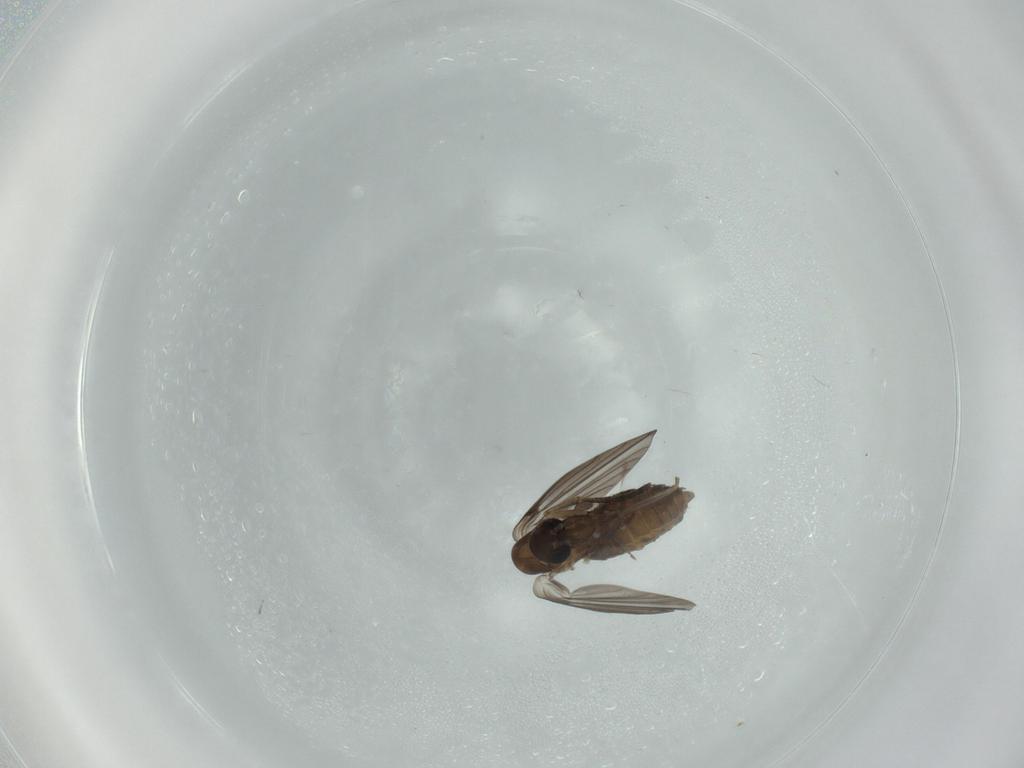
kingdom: Animalia
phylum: Arthropoda
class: Insecta
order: Diptera
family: Psychodidae
